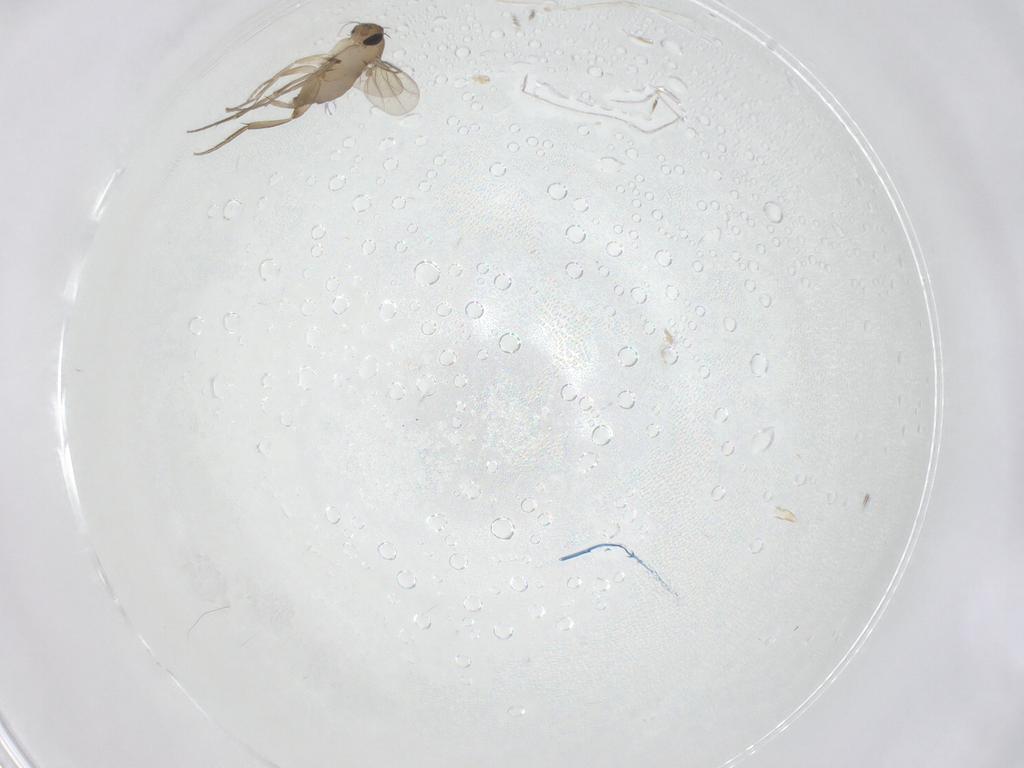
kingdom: Animalia
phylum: Arthropoda
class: Insecta
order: Diptera
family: Phoridae
